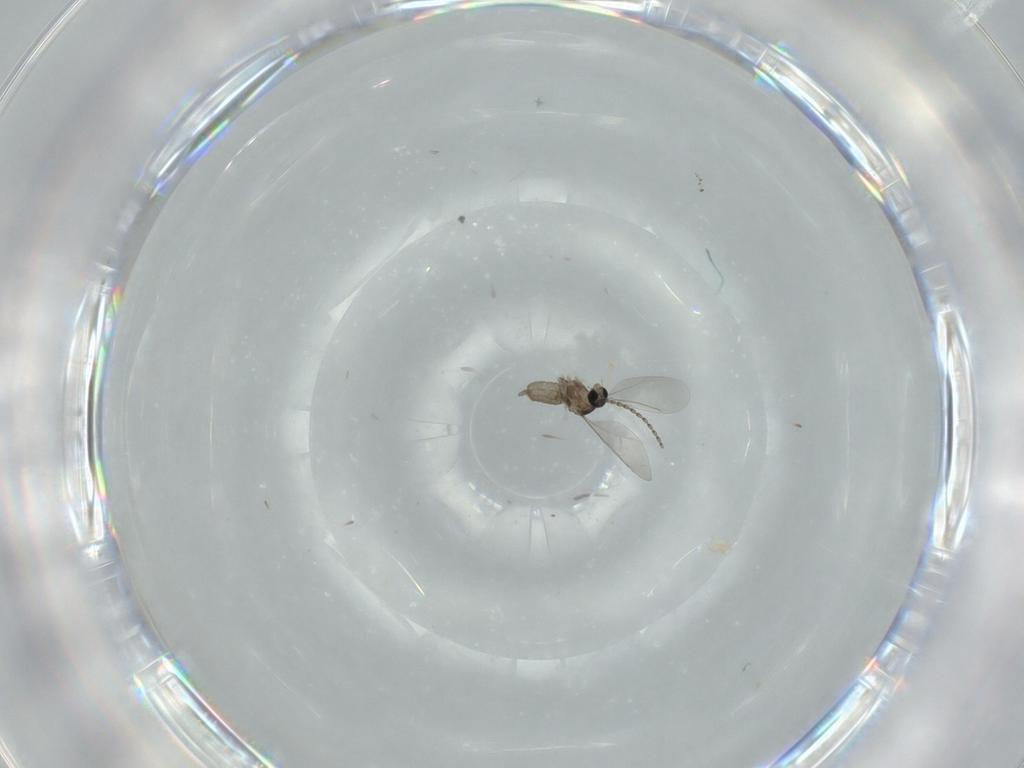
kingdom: Animalia
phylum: Arthropoda
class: Insecta
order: Diptera
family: Cecidomyiidae
